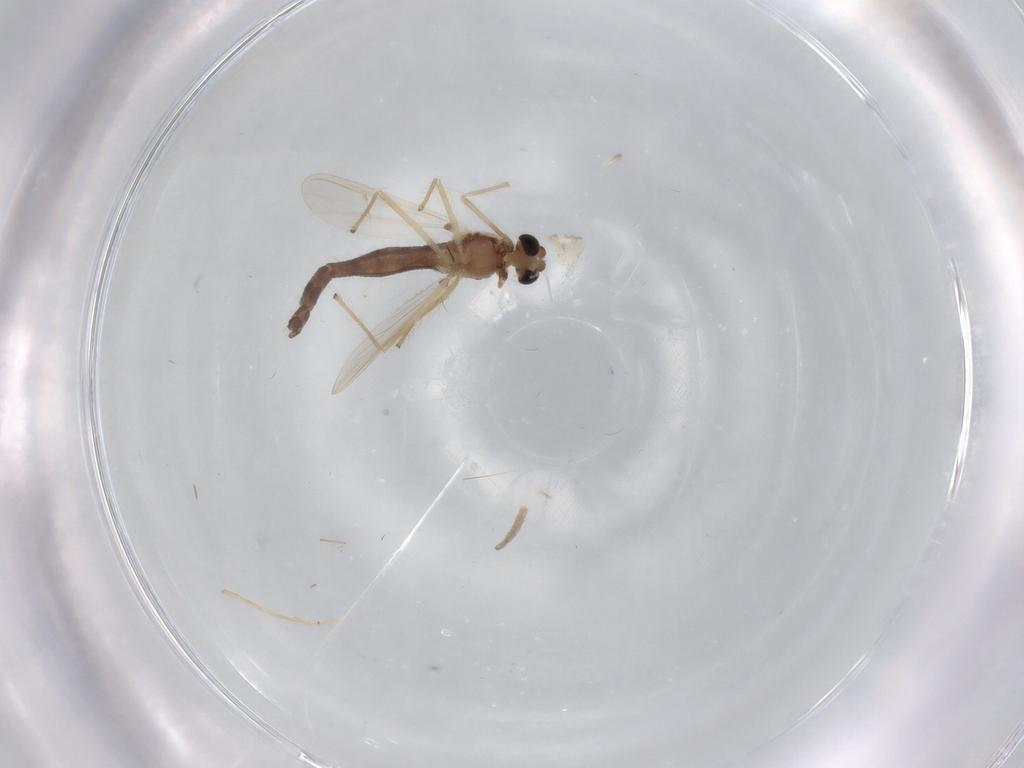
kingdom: Animalia
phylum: Arthropoda
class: Insecta
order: Diptera
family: Chironomidae
